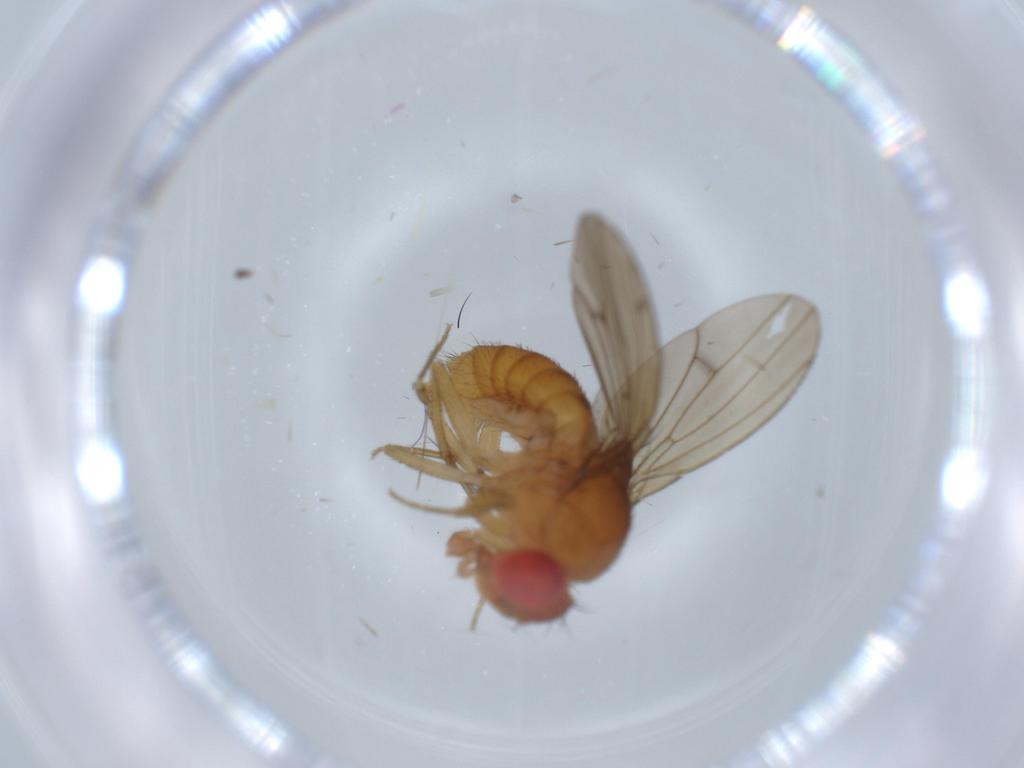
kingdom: Animalia
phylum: Arthropoda
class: Insecta
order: Diptera
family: Drosophilidae
